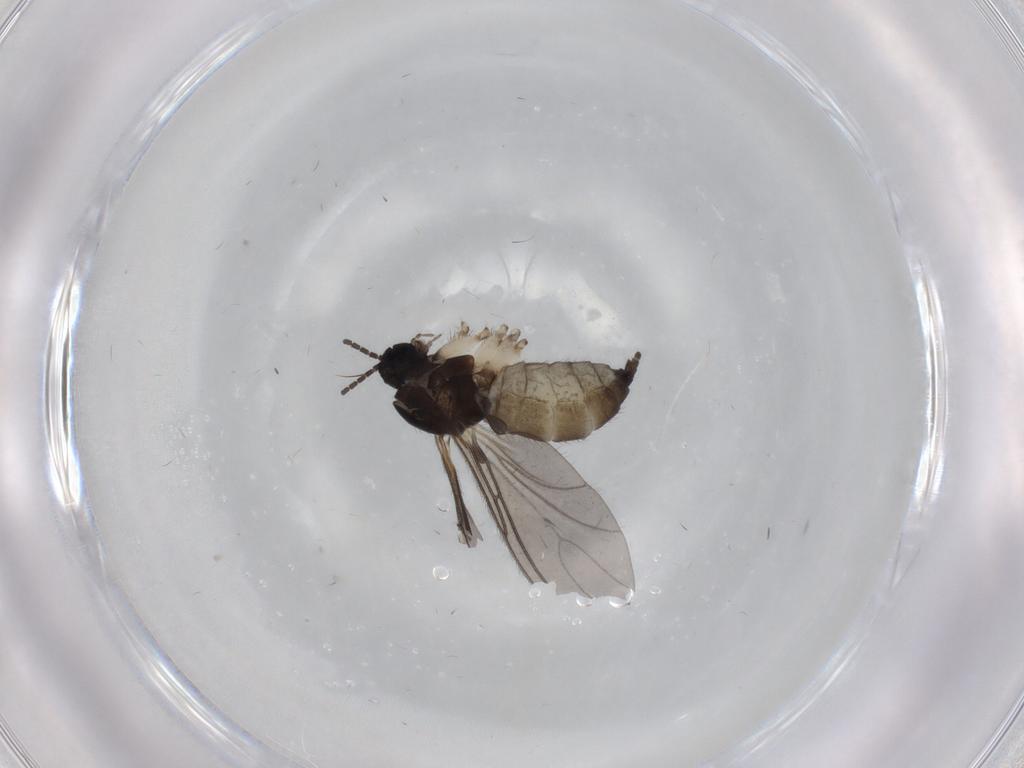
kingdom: Animalia
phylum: Arthropoda
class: Insecta
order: Diptera
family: Sciaridae
